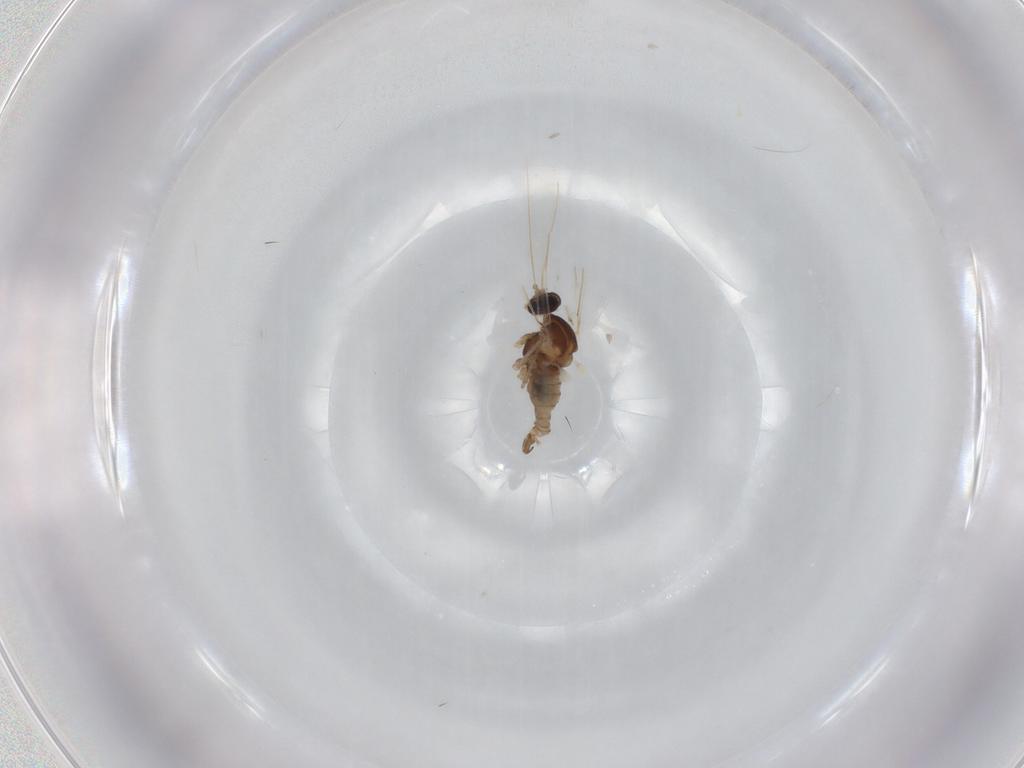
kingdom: Animalia
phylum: Arthropoda
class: Insecta
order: Diptera
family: Cecidomyiidae
